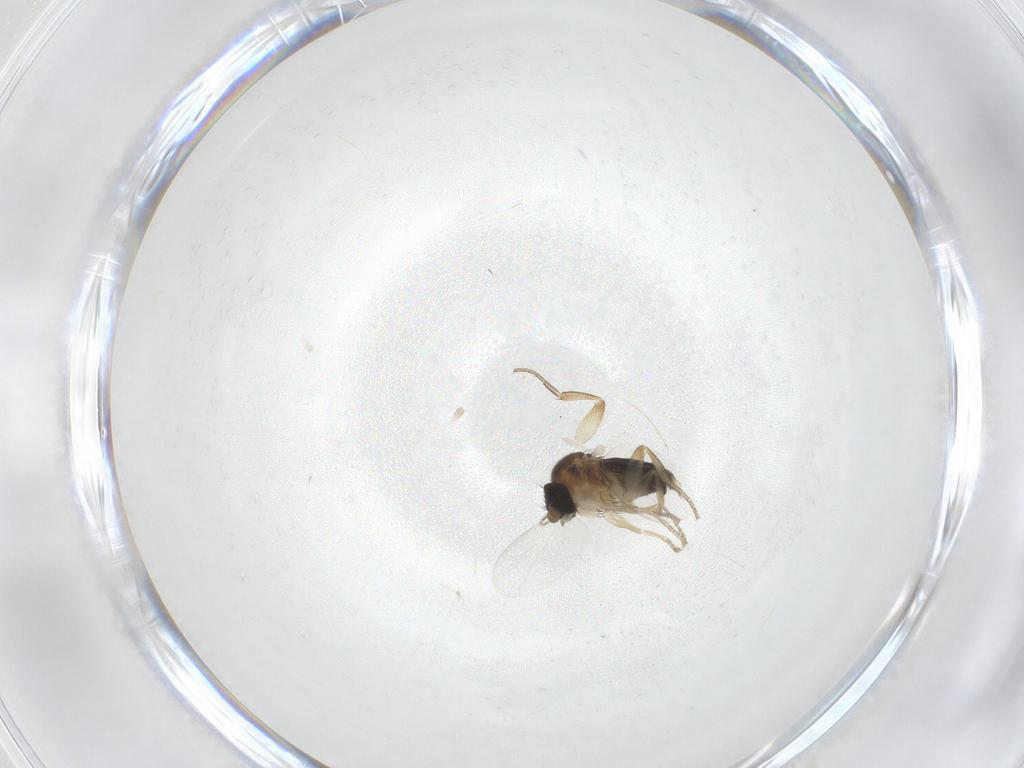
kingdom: Animalia
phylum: Arthropoda
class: Insecta
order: Diptera
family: Phoridae
